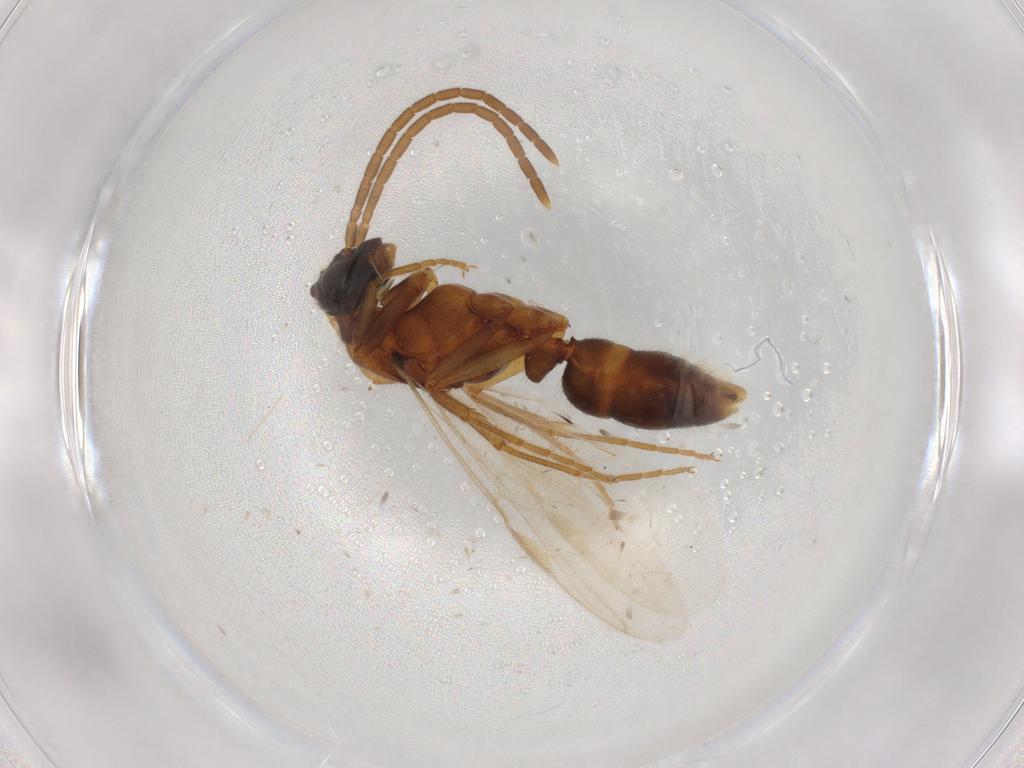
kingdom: Animalia
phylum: Arthropoda
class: Insecta
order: Hymenoptera
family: Formicidae
